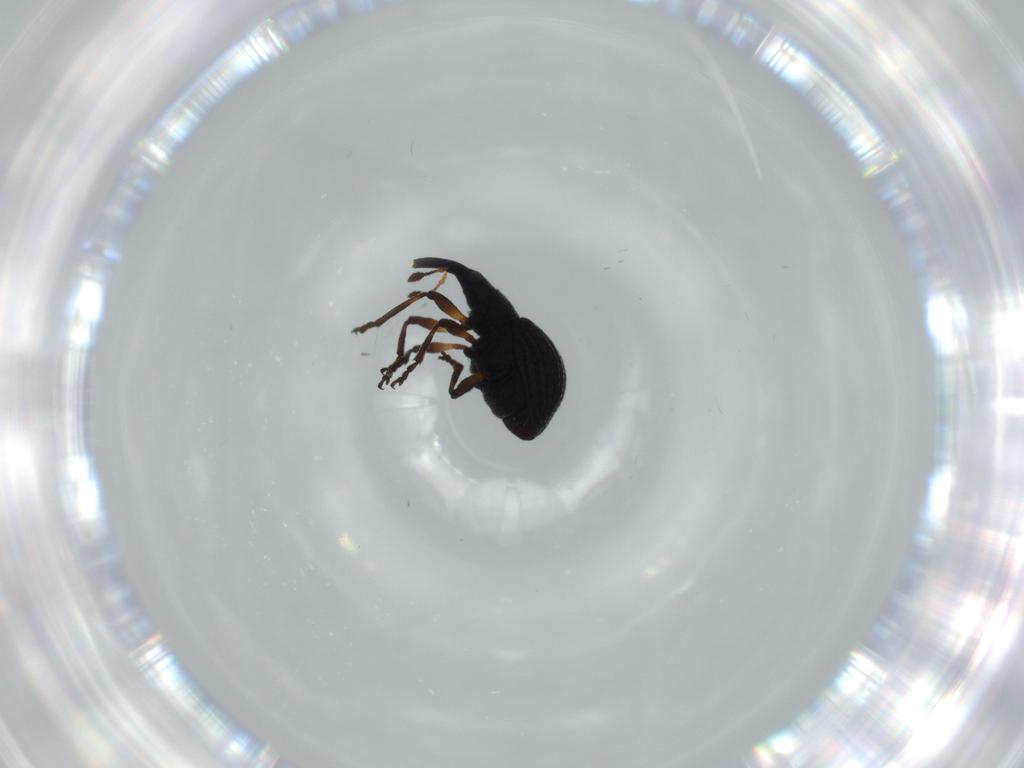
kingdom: Animalia
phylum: Arthropoda
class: Insecta
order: Coleoptera
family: Brentidae
